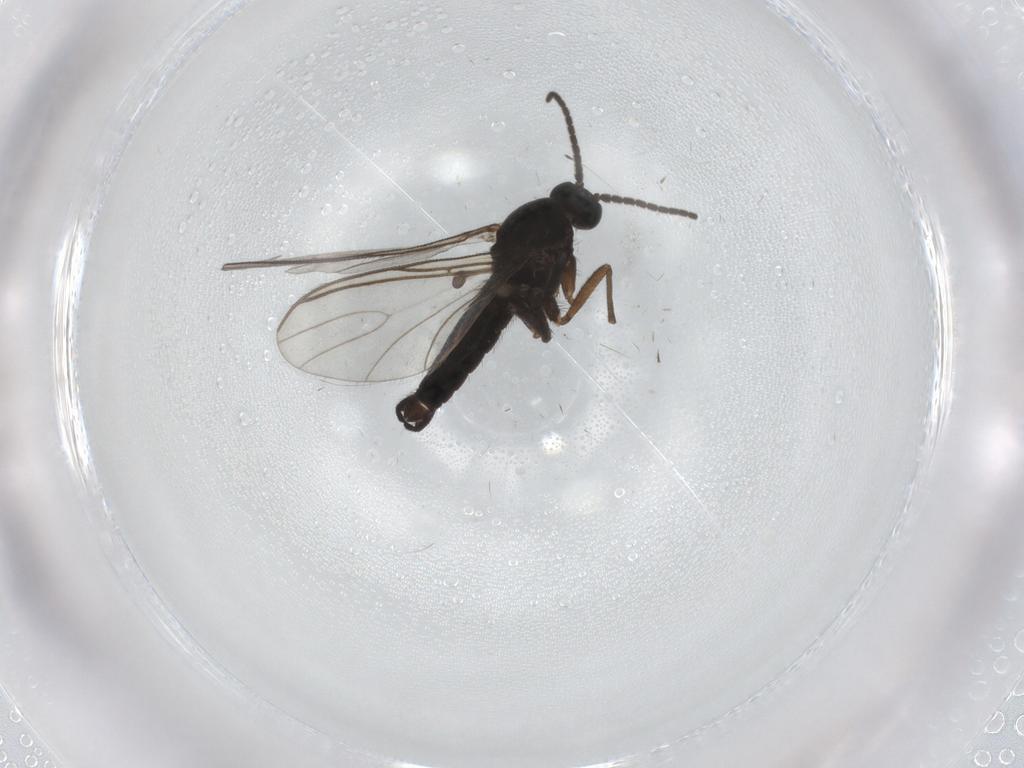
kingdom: Animalia
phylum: Arthropoda
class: Insecta
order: Diptera
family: Sciaridae
